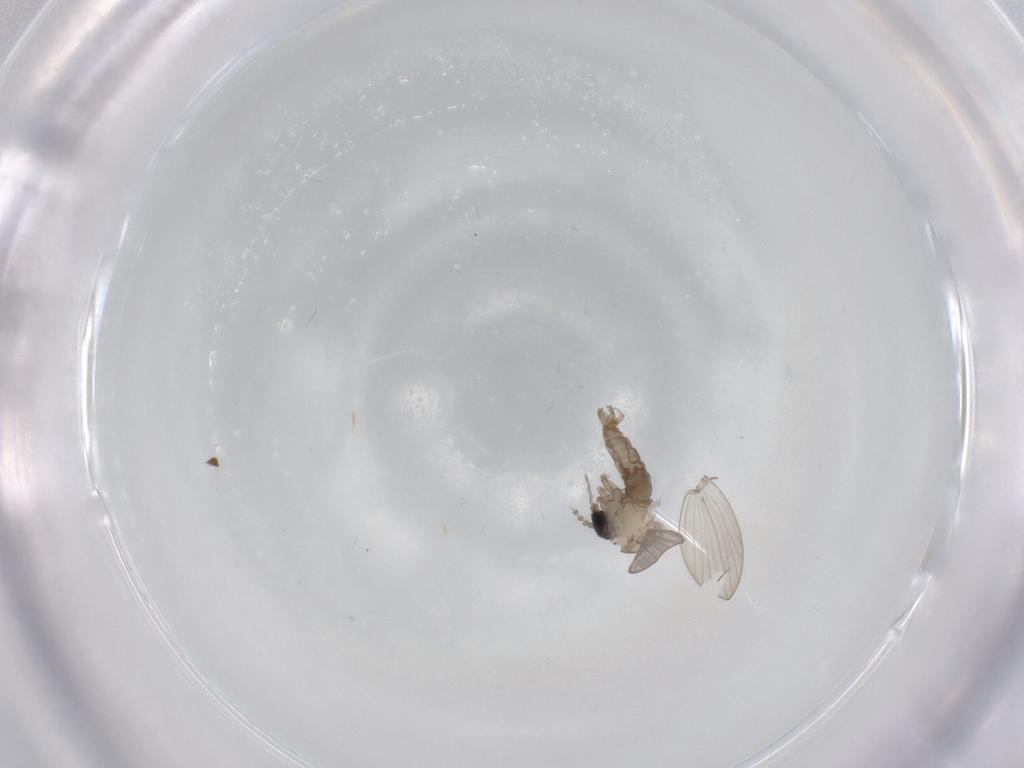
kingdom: Animalia
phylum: Arthropoda
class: Insecta
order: Diptera
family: Psychodidae
